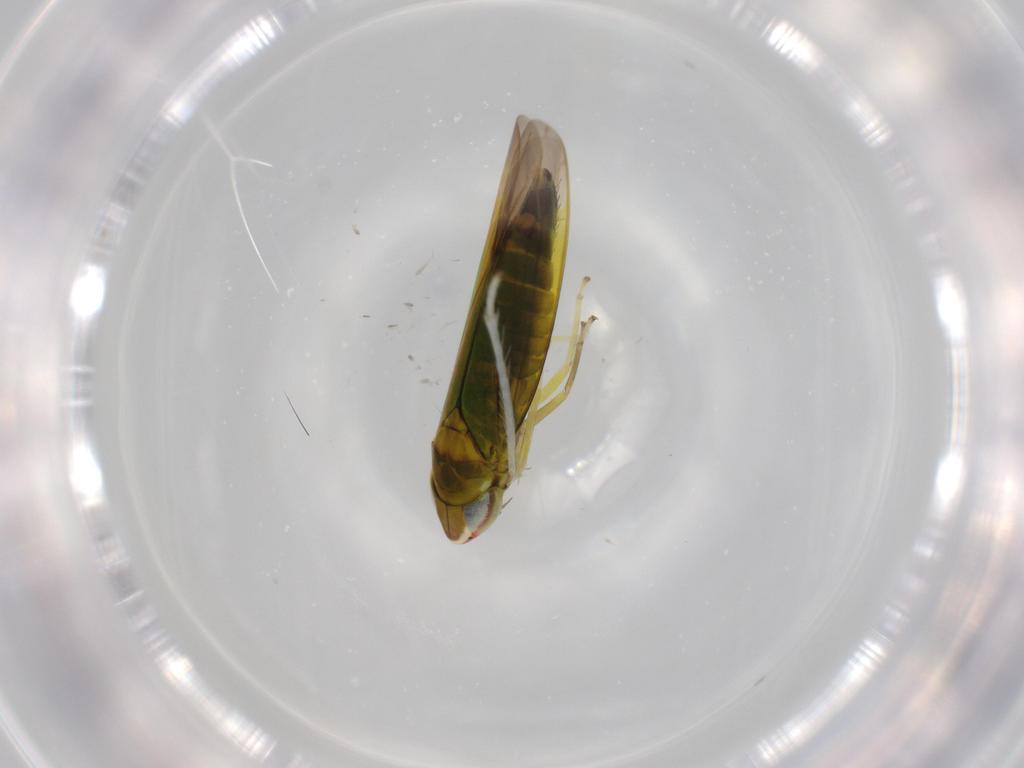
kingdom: Animalia
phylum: Arthropoda
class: Insecta
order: Hemiptera
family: Cicadellidae
